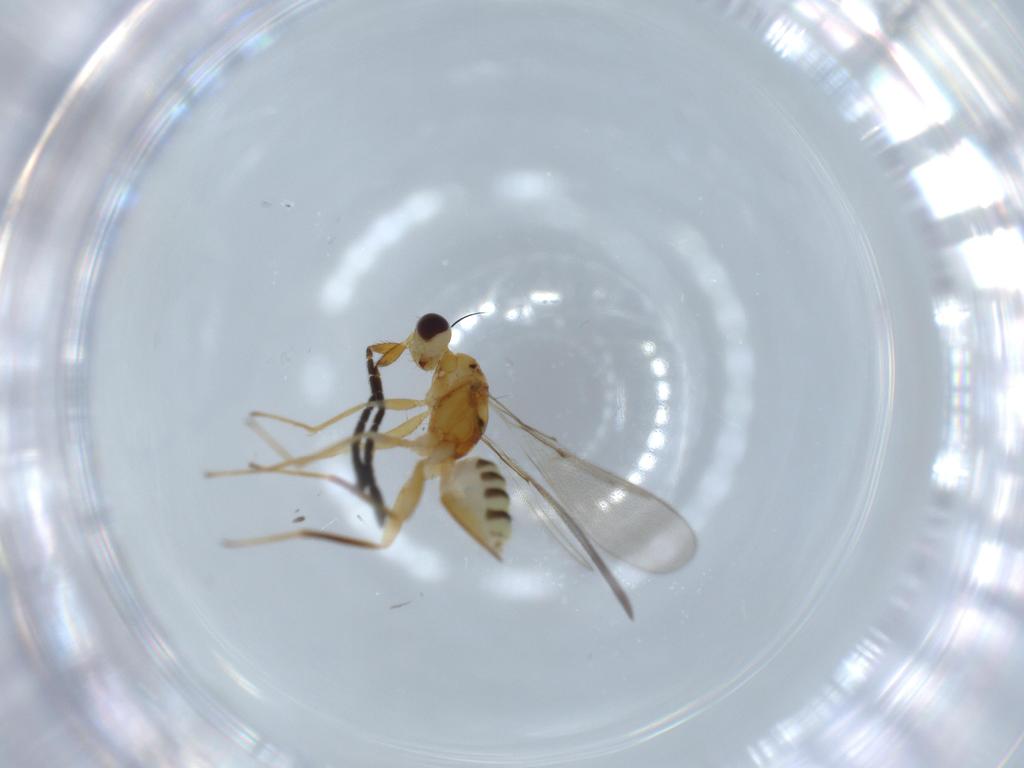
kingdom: Animalia
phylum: Arthropoda
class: Insecta
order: Hymenoptera
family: Mymaridae
